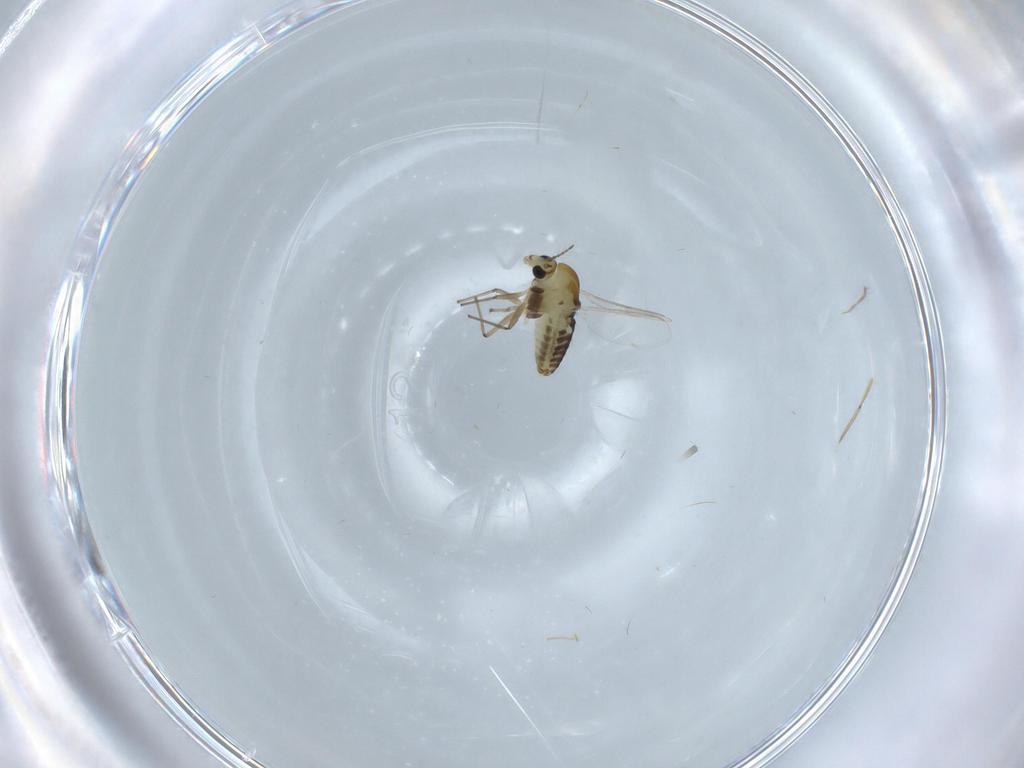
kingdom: Animalia
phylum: Arthropoda
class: Insecta
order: Diptera
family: Chironomidae
